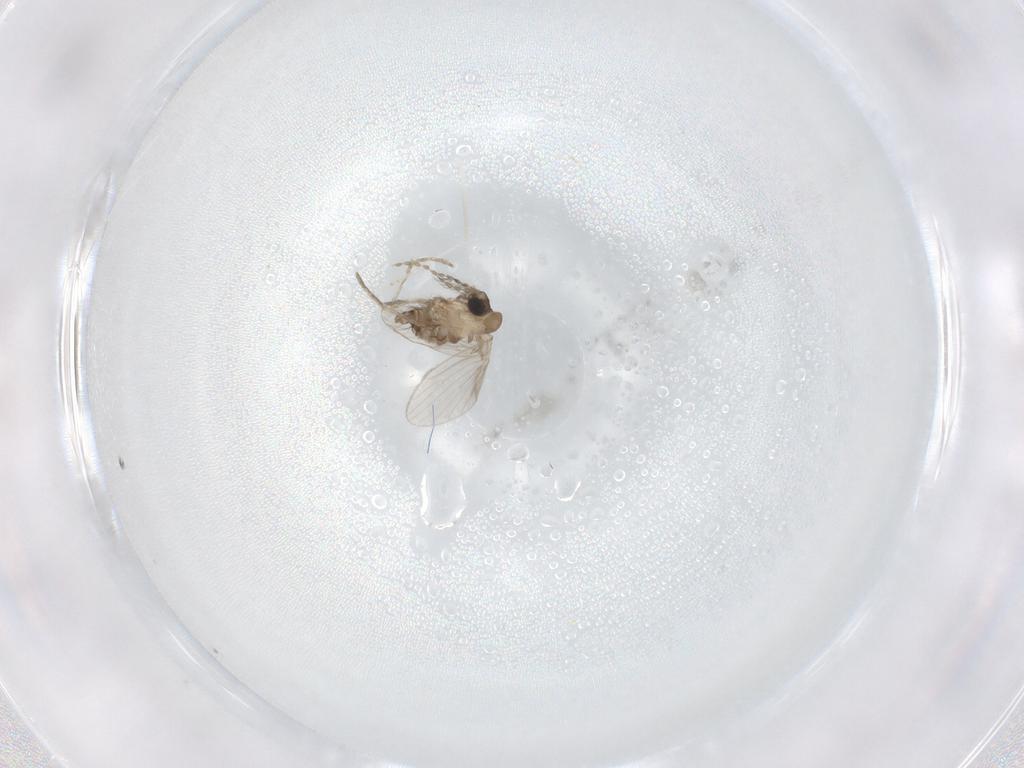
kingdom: Animalia
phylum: Arthropoda
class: Insecta
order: Diptera
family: Cecidomyiidae
